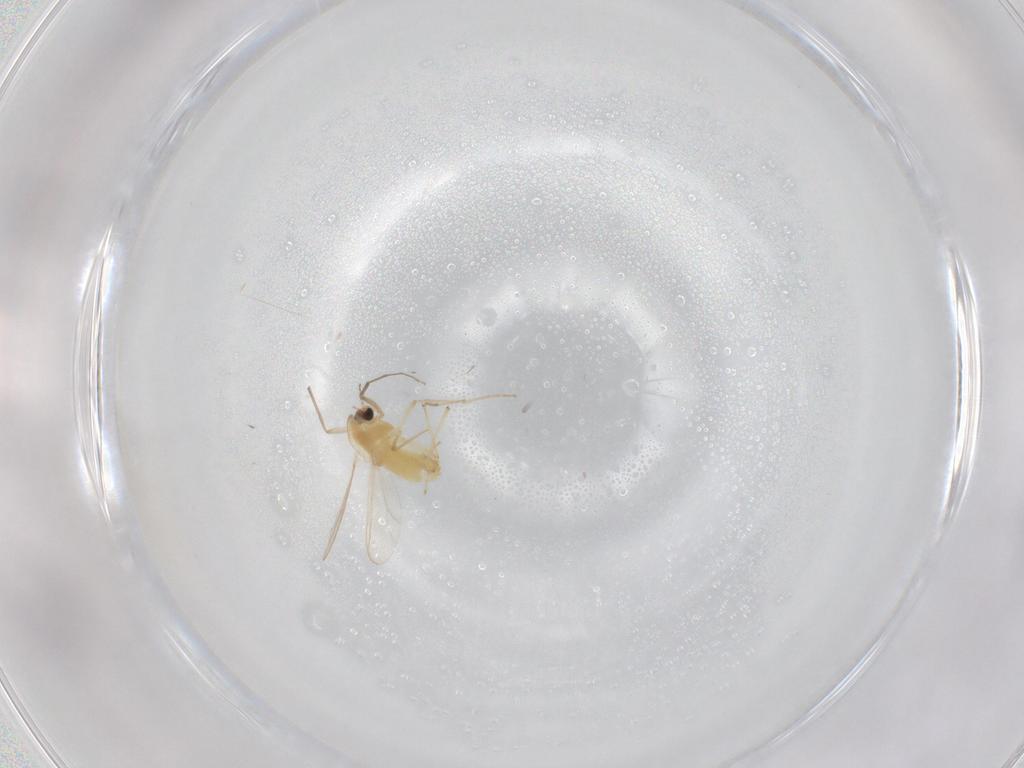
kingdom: Animalia
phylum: Arthropoda
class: Insecta
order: Diptera
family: Chironomidae
